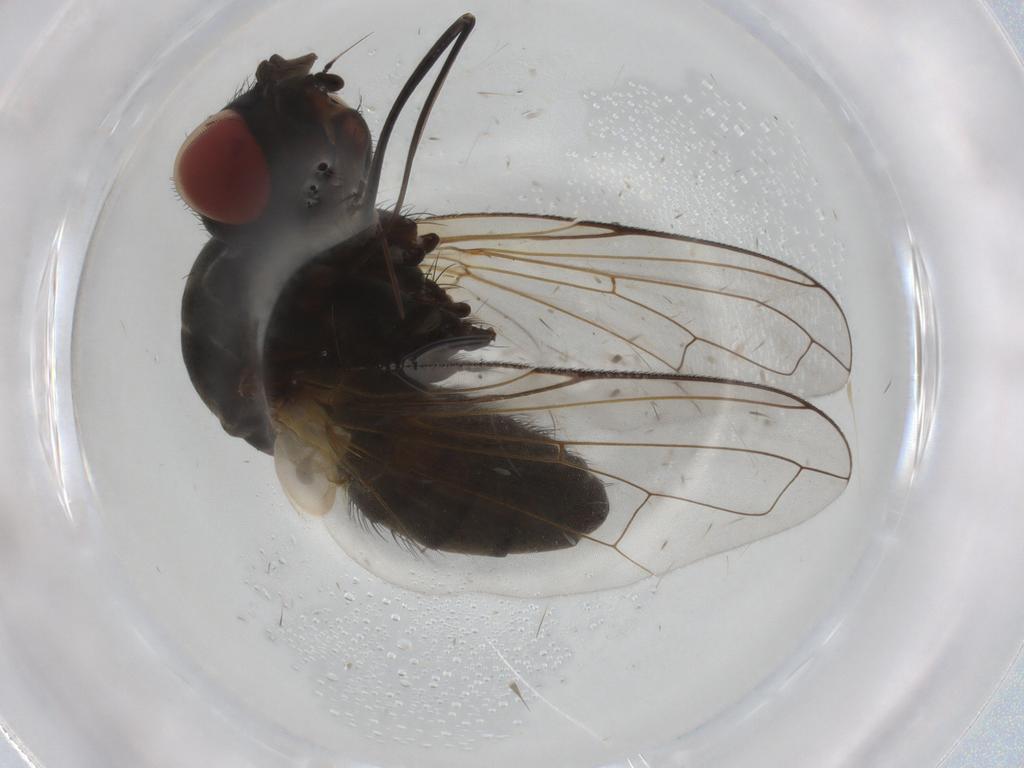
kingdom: Animalia
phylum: Arthropoda
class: Insecta
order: Diptera
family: Tachinidae
